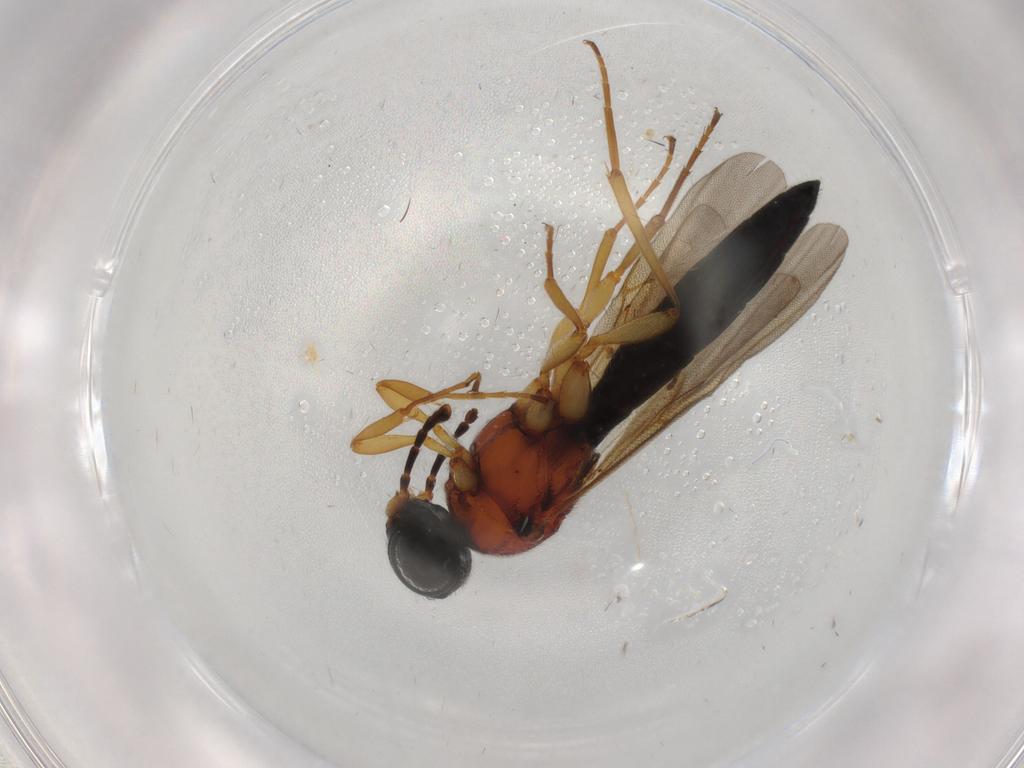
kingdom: Animalia
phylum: Arthropoda
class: Insecta
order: Hymenoptera
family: Scelionidae
